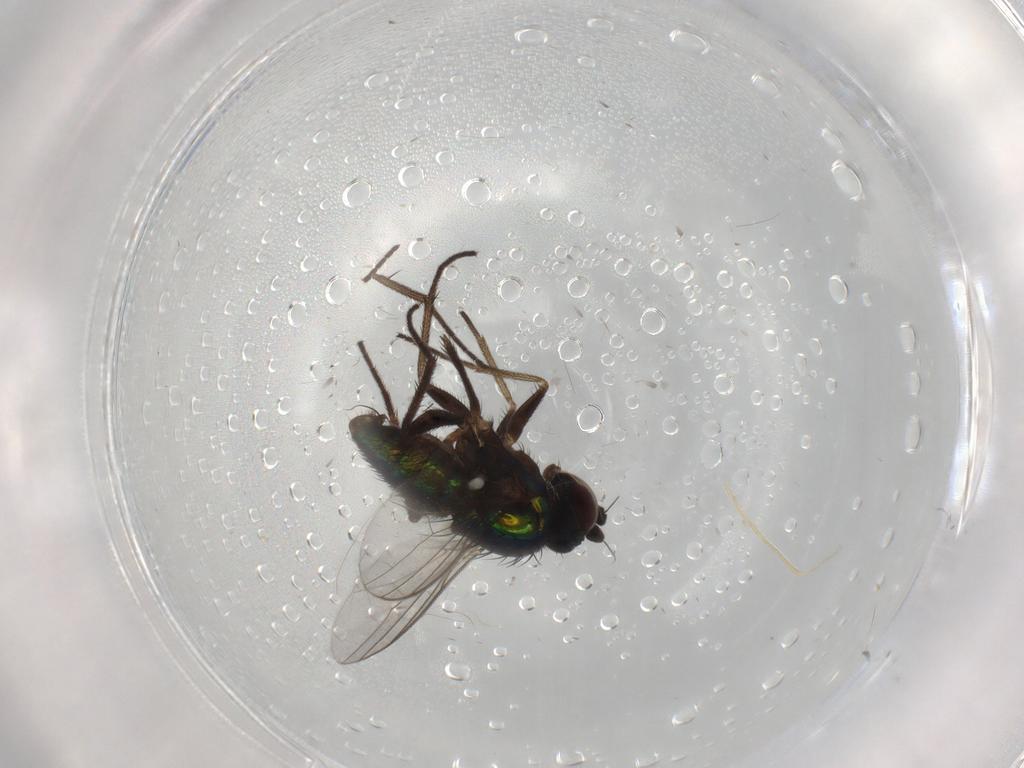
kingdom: Animalia
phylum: Arthropoda
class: Insecta
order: Diptera
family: Dolichopodidae
